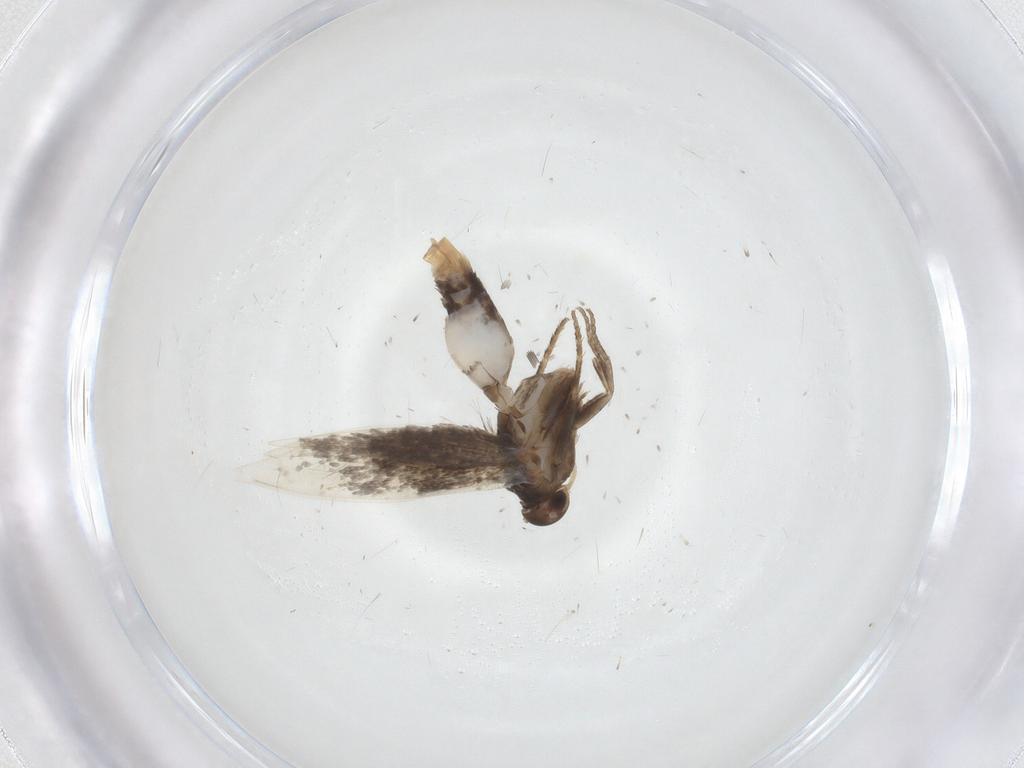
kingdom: Animalia
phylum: Arthropoda
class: Insecta
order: Lepidoptera
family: Elachistidae
